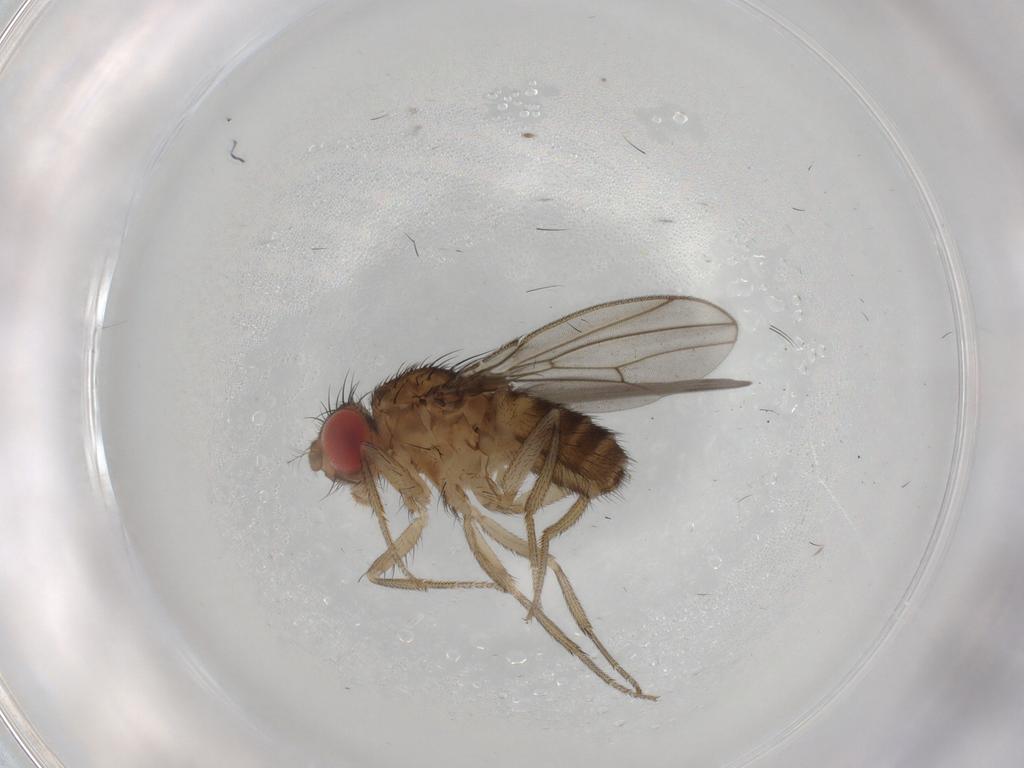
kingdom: Animalia
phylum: Arthropoda
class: Insecta
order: Diptera
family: Drosophilidae
